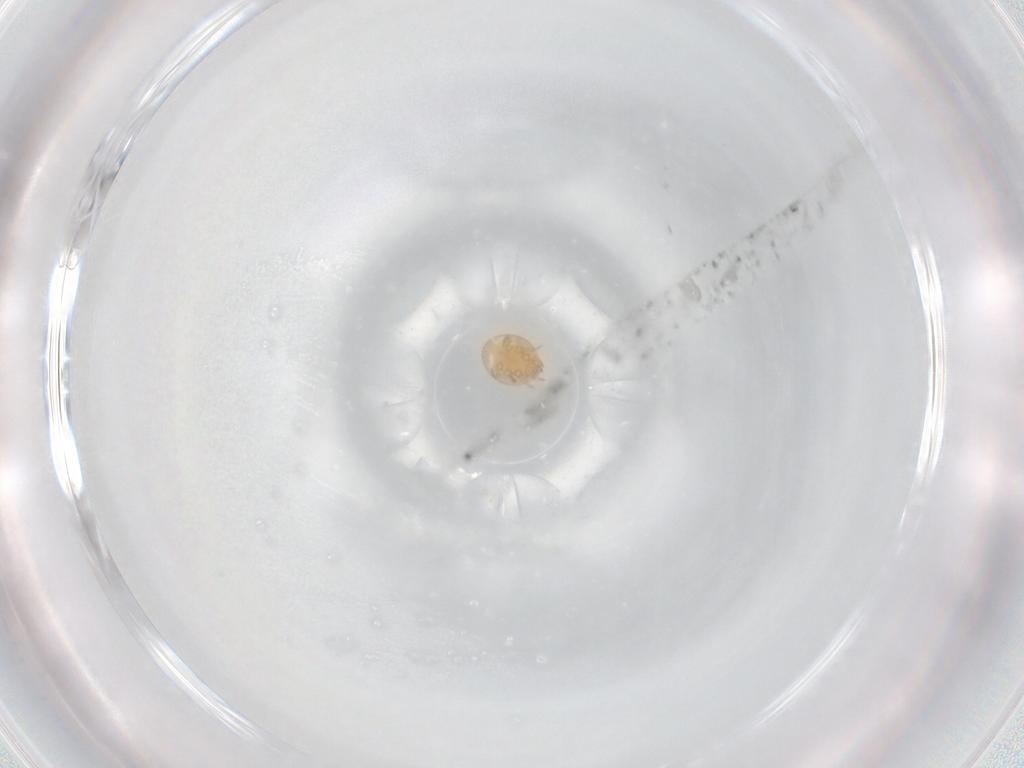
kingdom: Animalia
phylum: Arthropoda
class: Arachnida
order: Mesostigmata
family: Trematuridae
